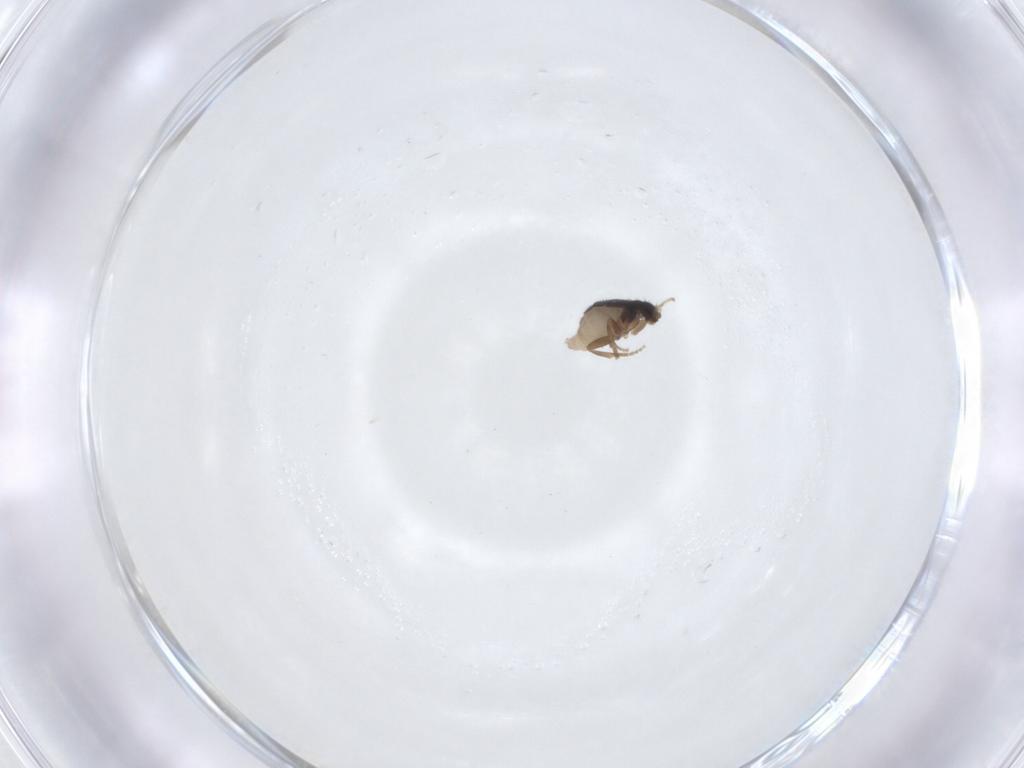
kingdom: Animalia
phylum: Arthropoda
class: Insecta
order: Diptera
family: Phoridae
